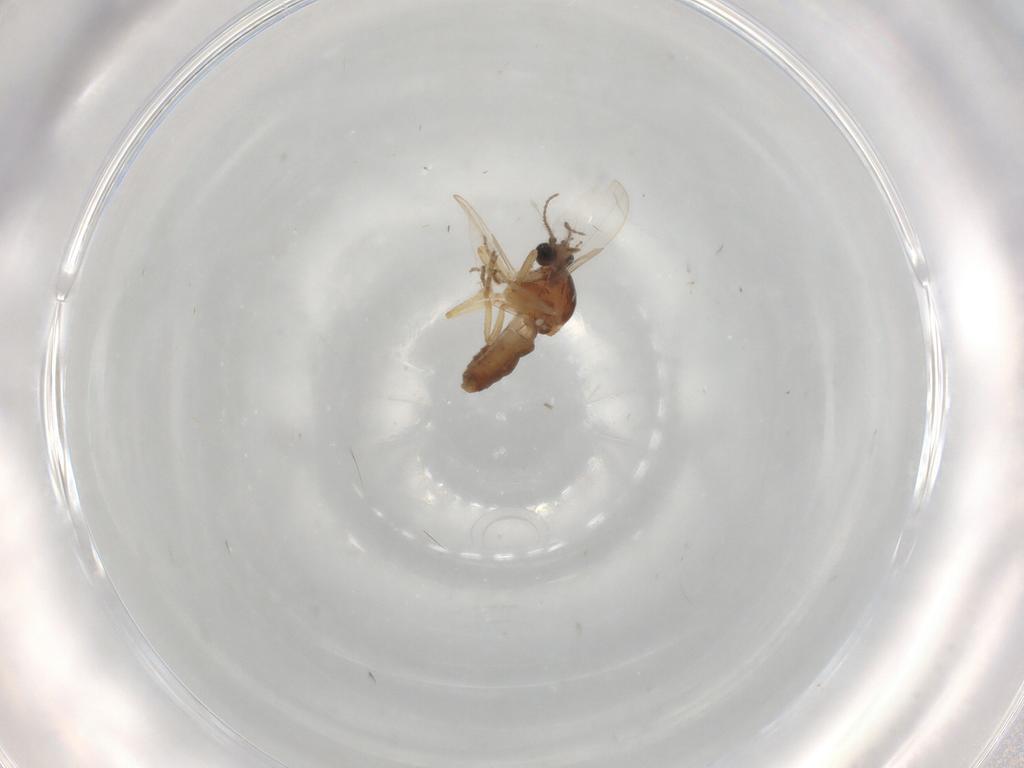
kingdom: Animalia
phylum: Arthropoda
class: Insecta
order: Diptera
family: Ceratopogonidae
